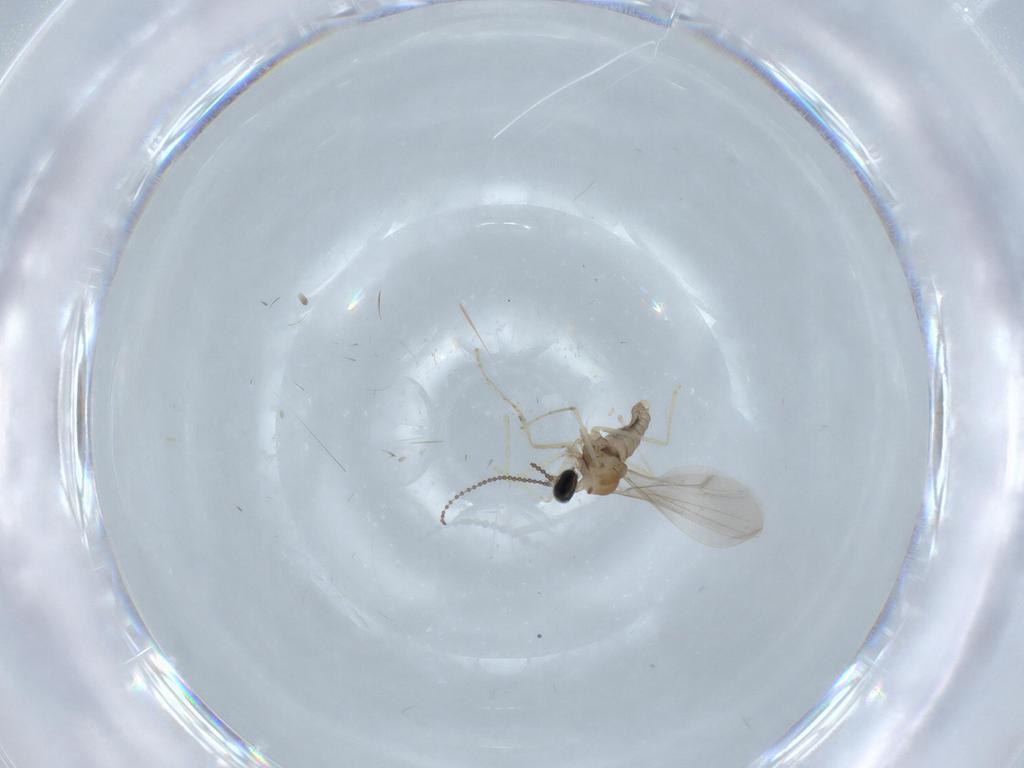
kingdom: Animalia
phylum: Arthropoda
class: Insecta
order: Diptera
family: Cecidomyiidae
